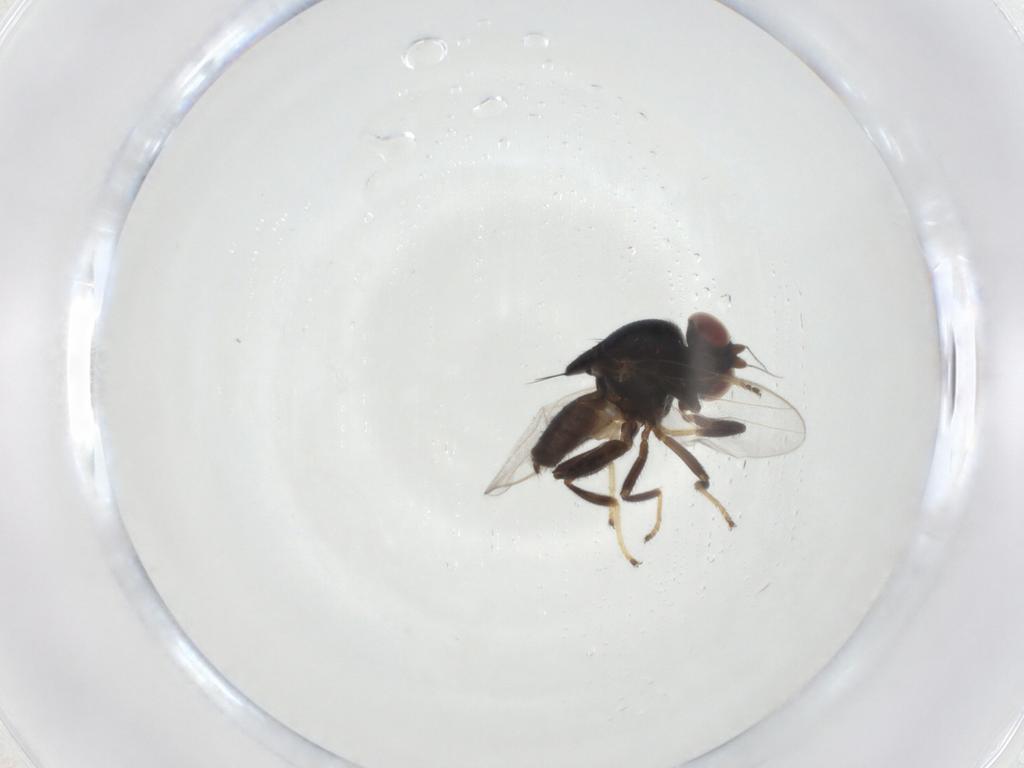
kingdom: Animalia
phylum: Arthropoda
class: Insecta
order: Diptera
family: Chloropidae
